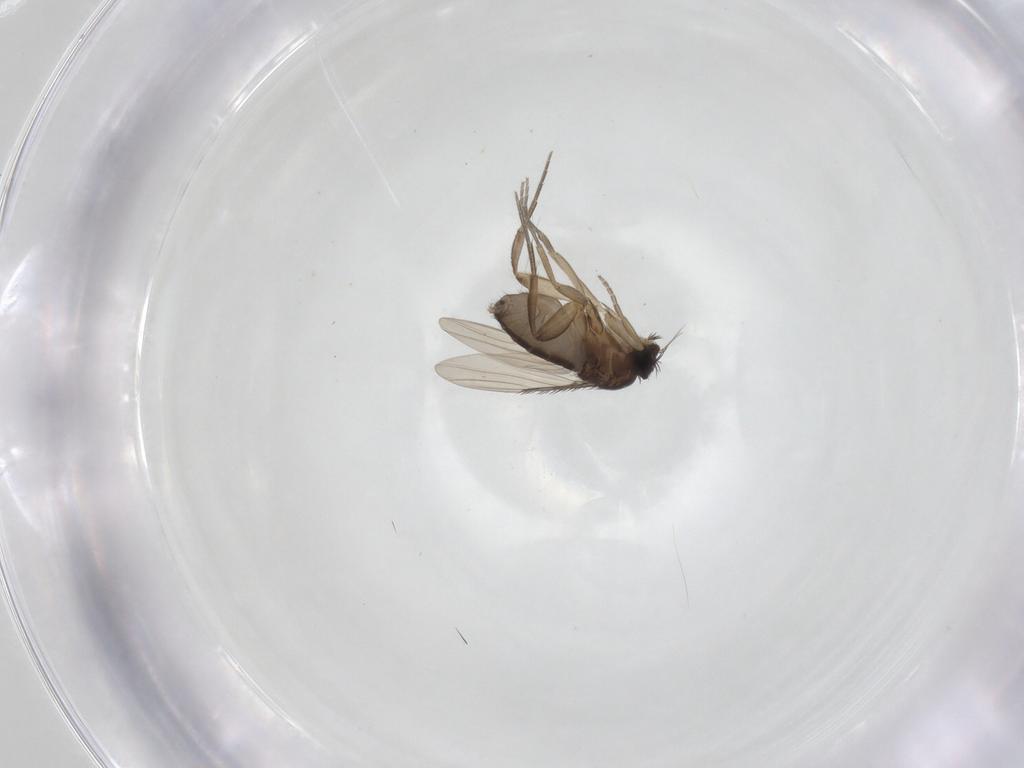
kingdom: Animalia
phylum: Arthropoda
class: Insecta
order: Diptera
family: Phoridae
